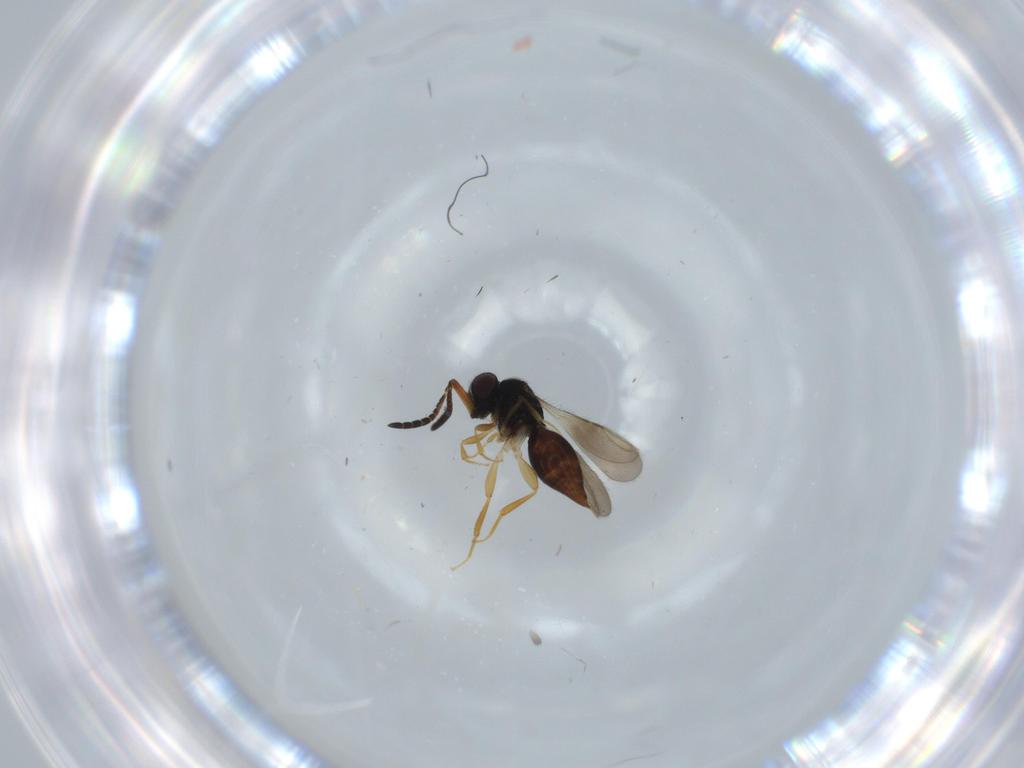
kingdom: Animalia
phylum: Arthropoda
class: Insecta
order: Hymenoptera
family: Ceraphronidae
